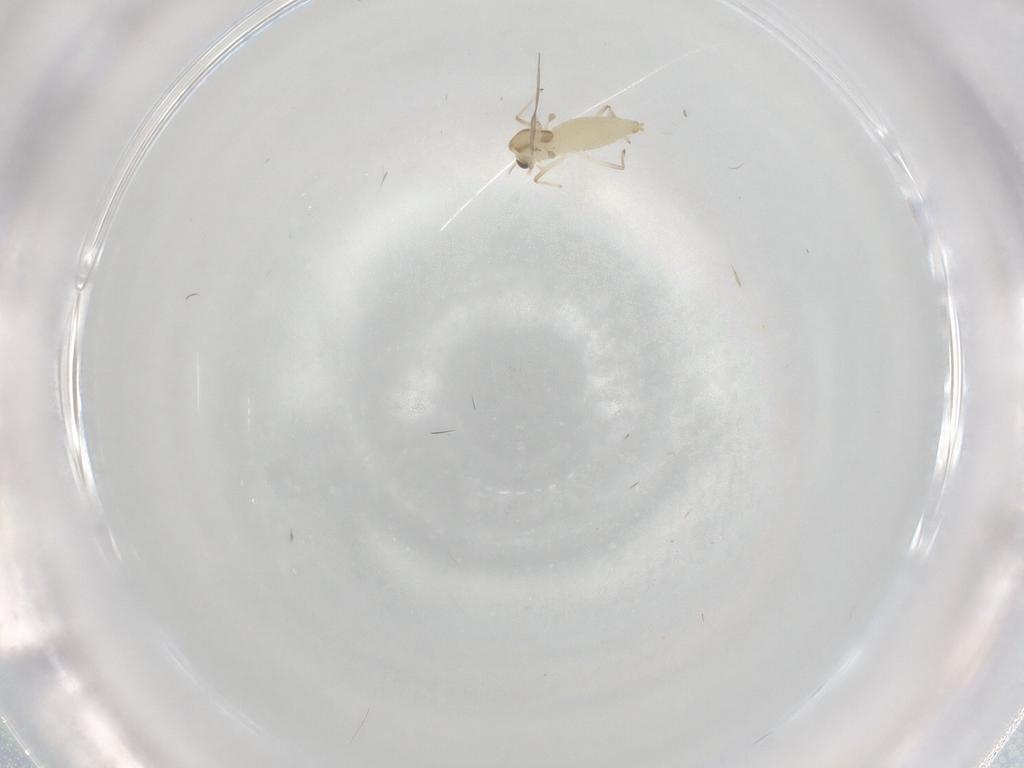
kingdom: Animalia
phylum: Arthropoda
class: Insecta
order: Diptera
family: Chironomidae
